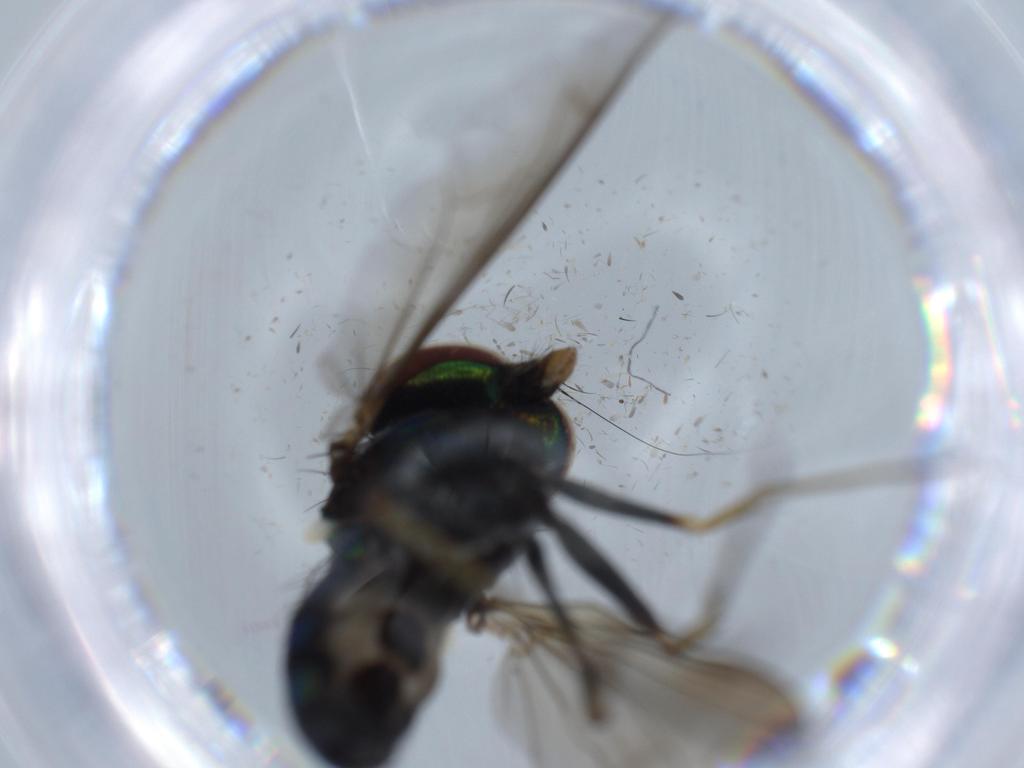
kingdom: Animalia
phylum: Arthropoda
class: Insecta
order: Diptera
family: Dolichopodidae
